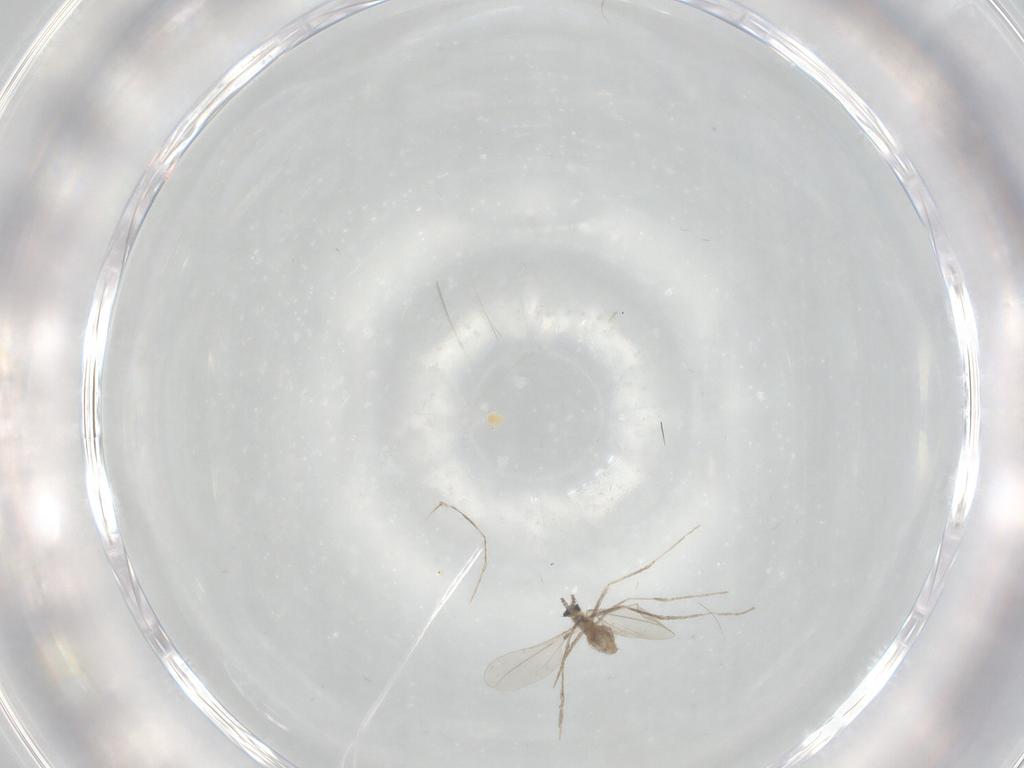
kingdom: Animalia
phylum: Arthropoda
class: Insecta
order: Diptera
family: Cecidomyiidae
